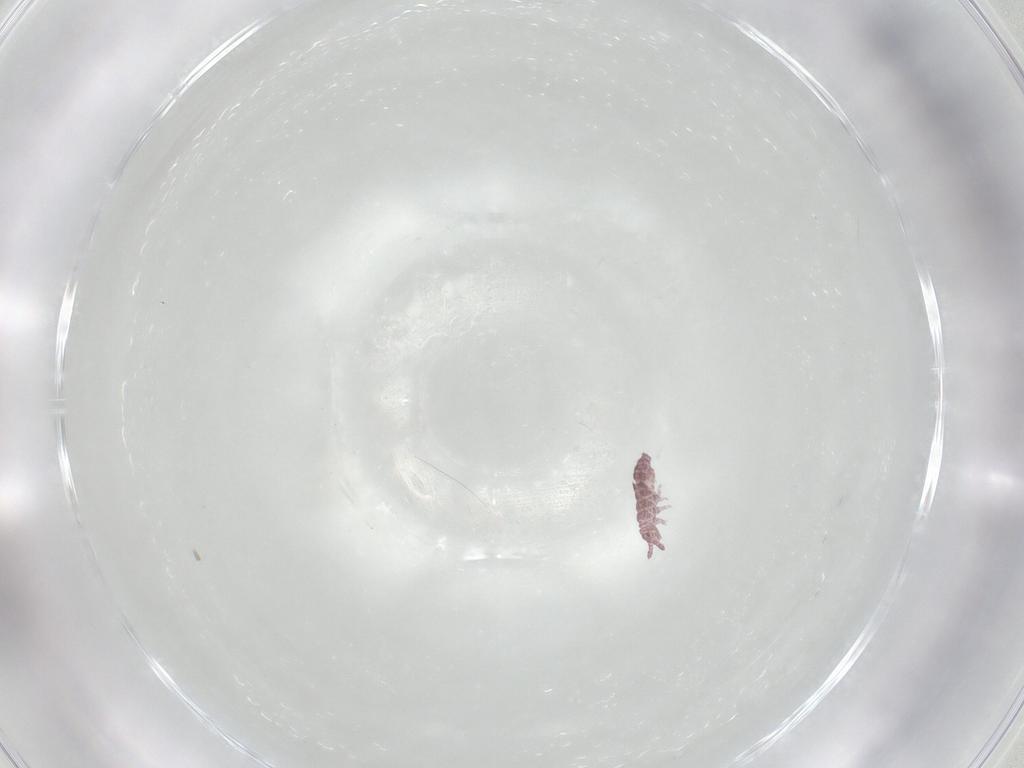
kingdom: Animalia
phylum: Arthropoda
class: Collembola
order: Poduromorpha
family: Hypogastruridae
